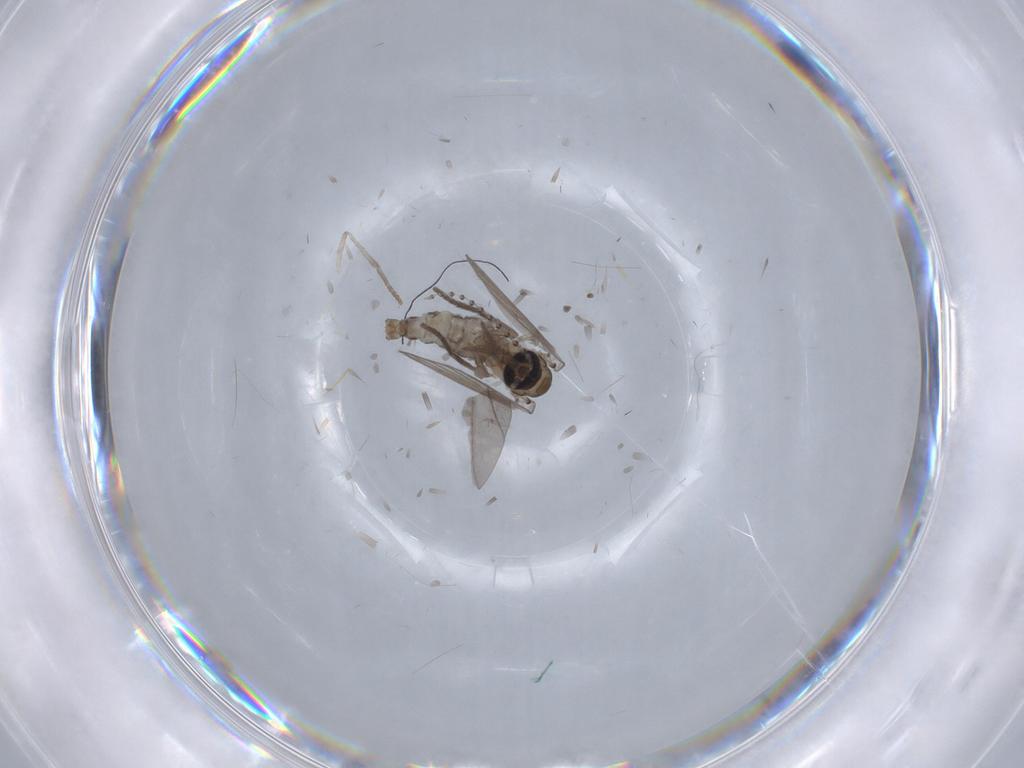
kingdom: Animalia
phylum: Arthropoda
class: Insecta
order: Diptera
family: Chloropidae
